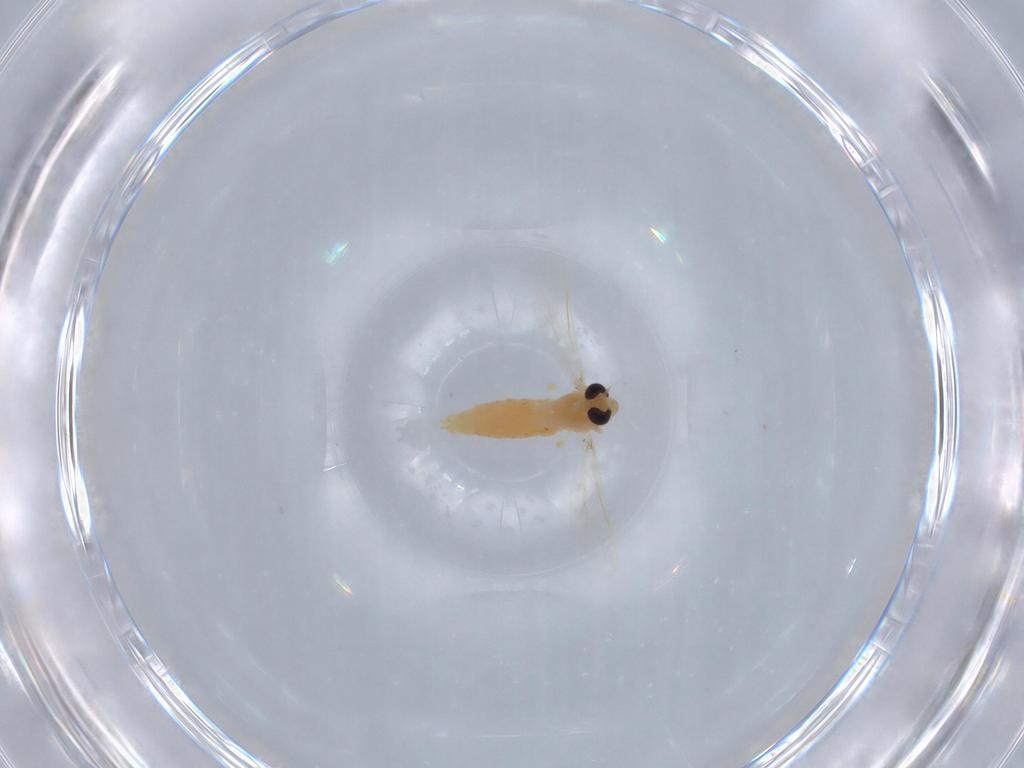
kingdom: Animalia
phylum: Arthropoda
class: Insecta
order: Diptera
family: Chironomidae
